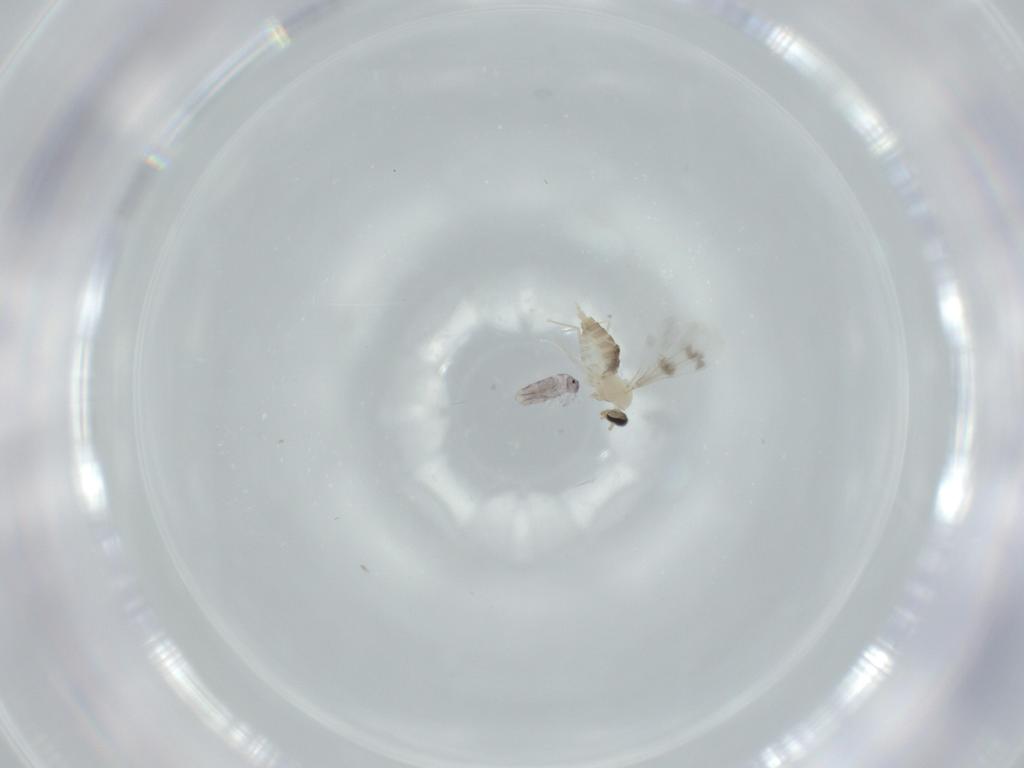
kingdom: Animalia
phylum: Arthropoda
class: Insecta
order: Diptera
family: Cecidomyiidae
